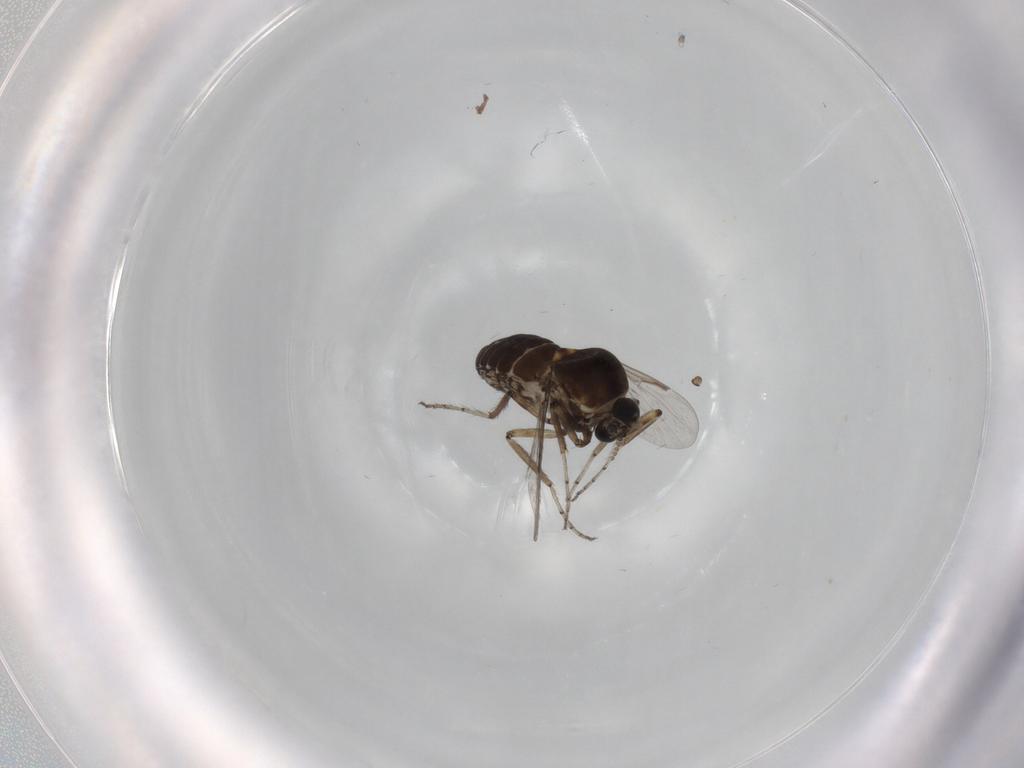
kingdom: Animalia
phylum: Arthropoda
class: Insecta
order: Diptera
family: Ceratopogonidae
